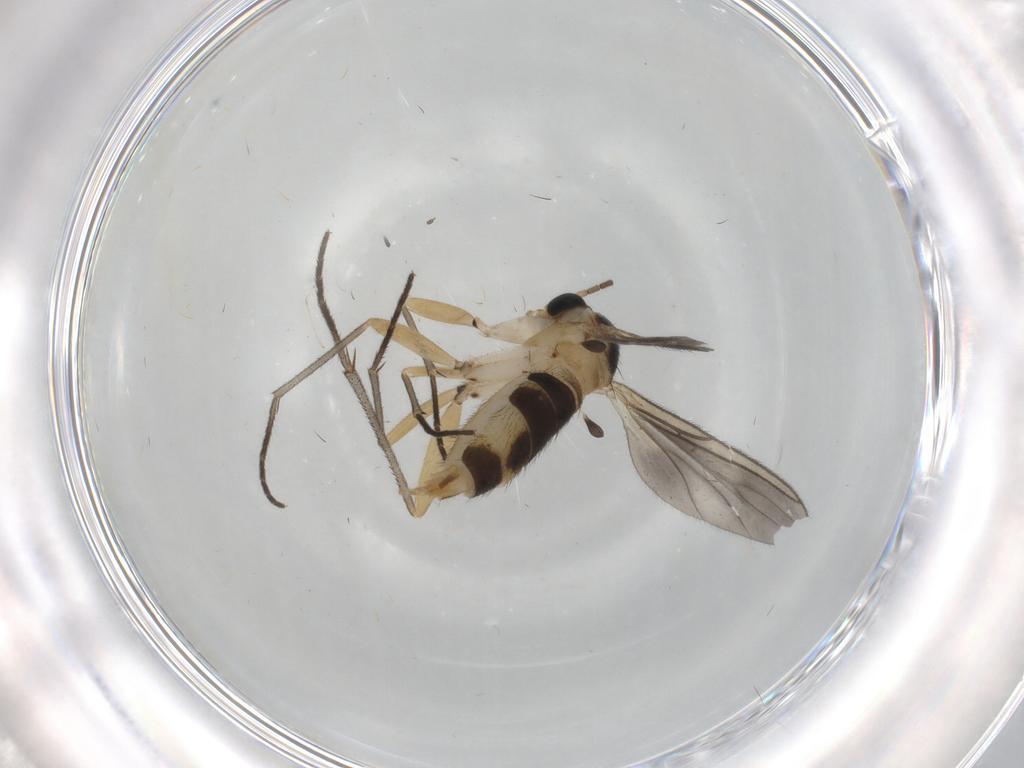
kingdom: Animalia
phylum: Arthropoda
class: Insecta
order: Diptera
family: Sciaridae
